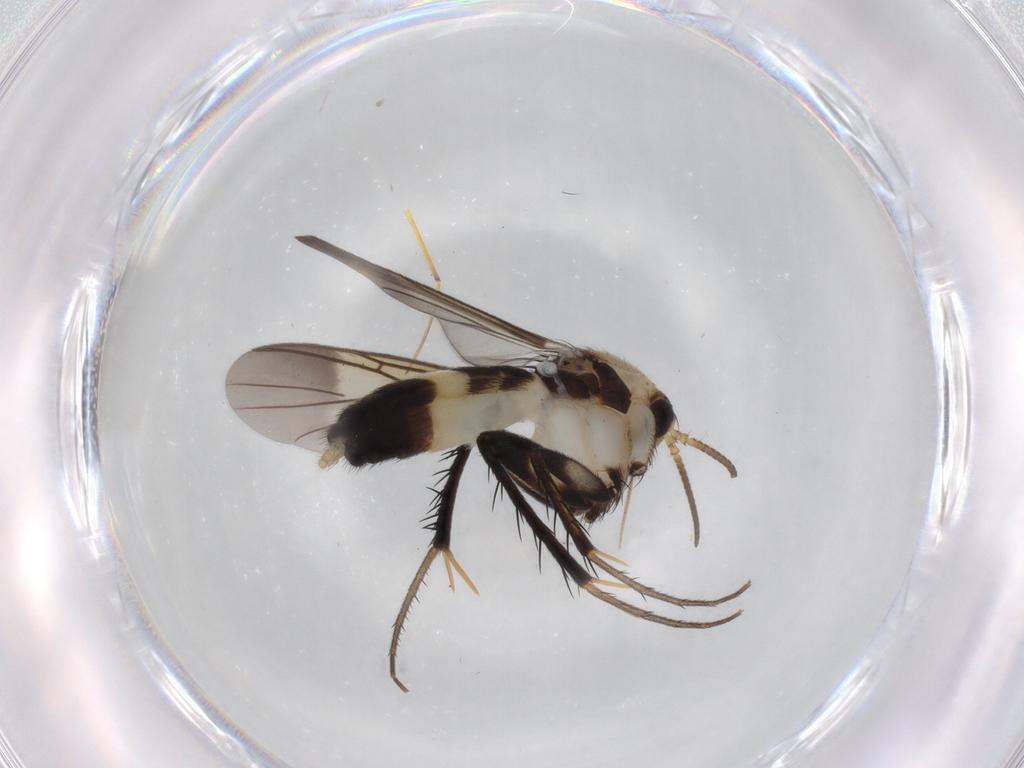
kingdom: Animalia
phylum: Arthropoda
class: Insecta
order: Diptera
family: Mycetophilidae
